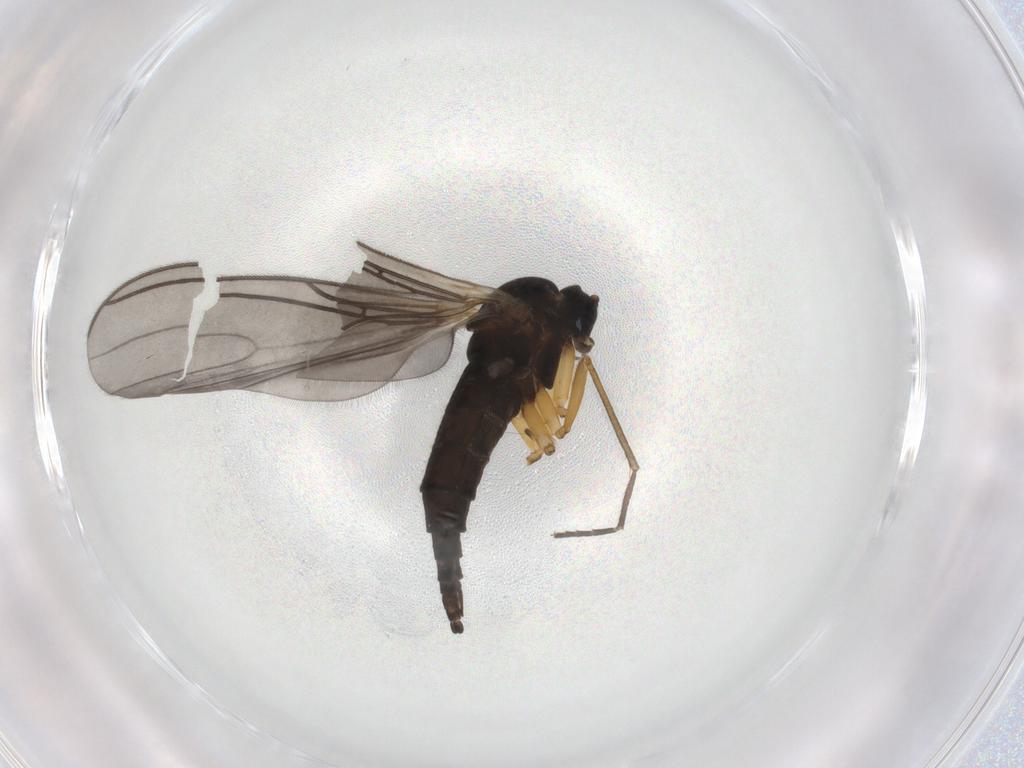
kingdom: Animalia
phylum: Arthropoda
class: Insecta
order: Diptera
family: Sciaridae
